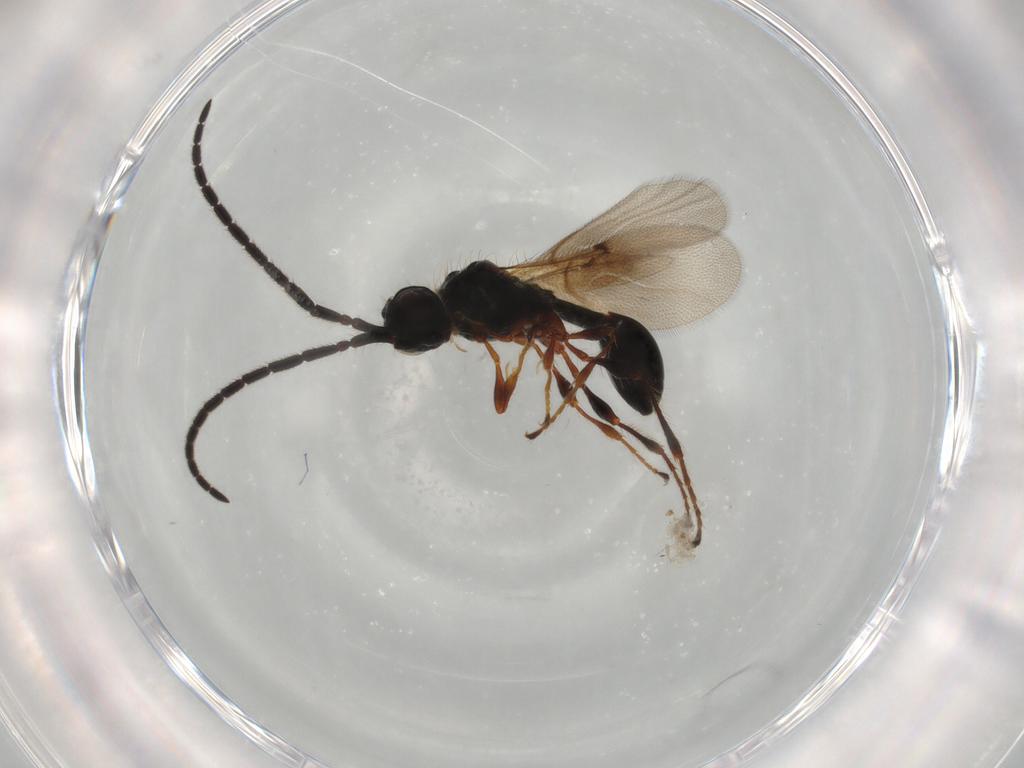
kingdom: Animalia
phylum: Arthropoda
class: Insecta
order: Hymenoptera
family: Diapriidae
